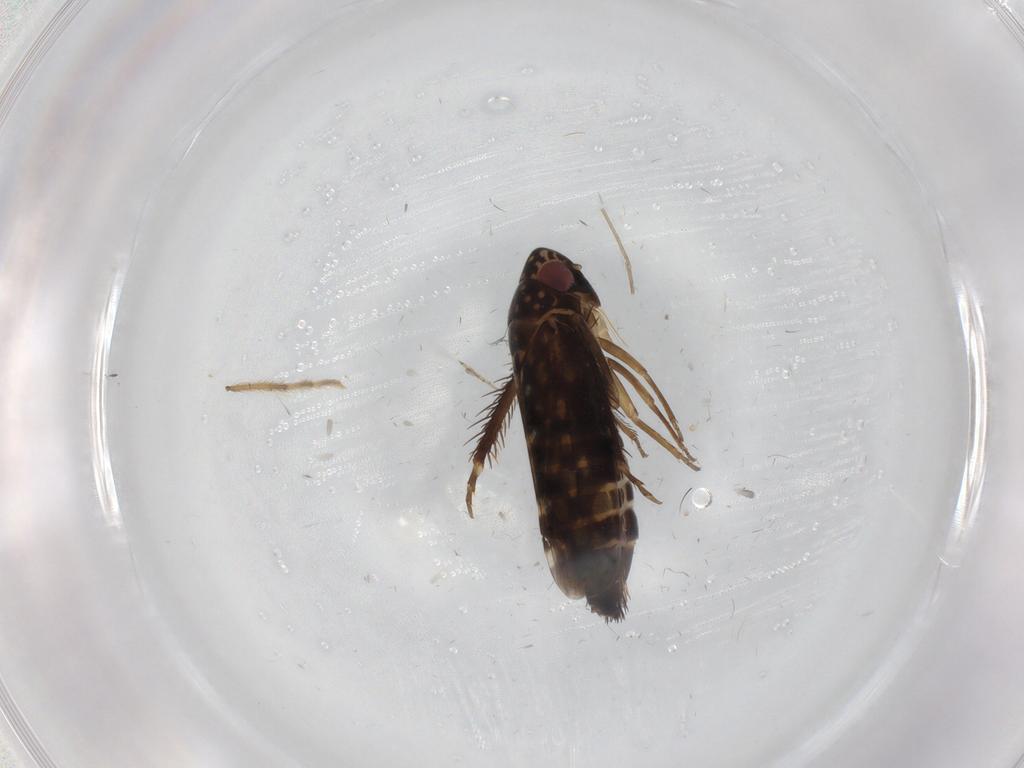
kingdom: Animalia
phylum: Arthropoda
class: Insecta
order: Hemiptera
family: Cicadellidae
